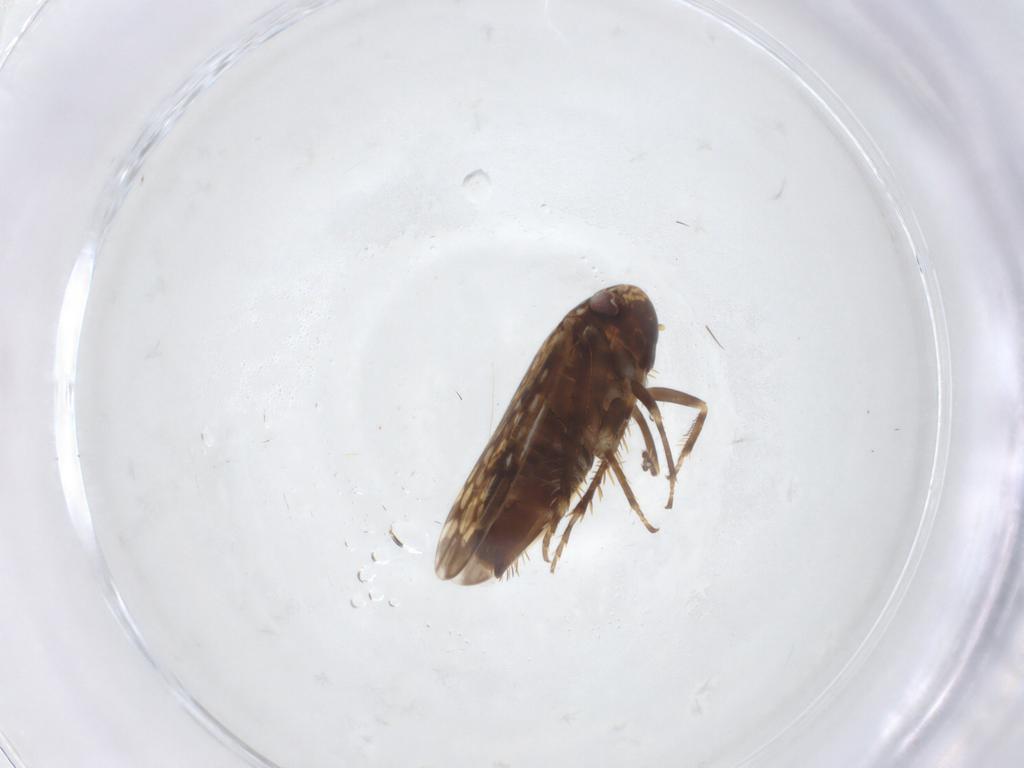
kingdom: Animalia
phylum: Arthropoda
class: Insecta
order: Hemiptera
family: Cicadellidae
